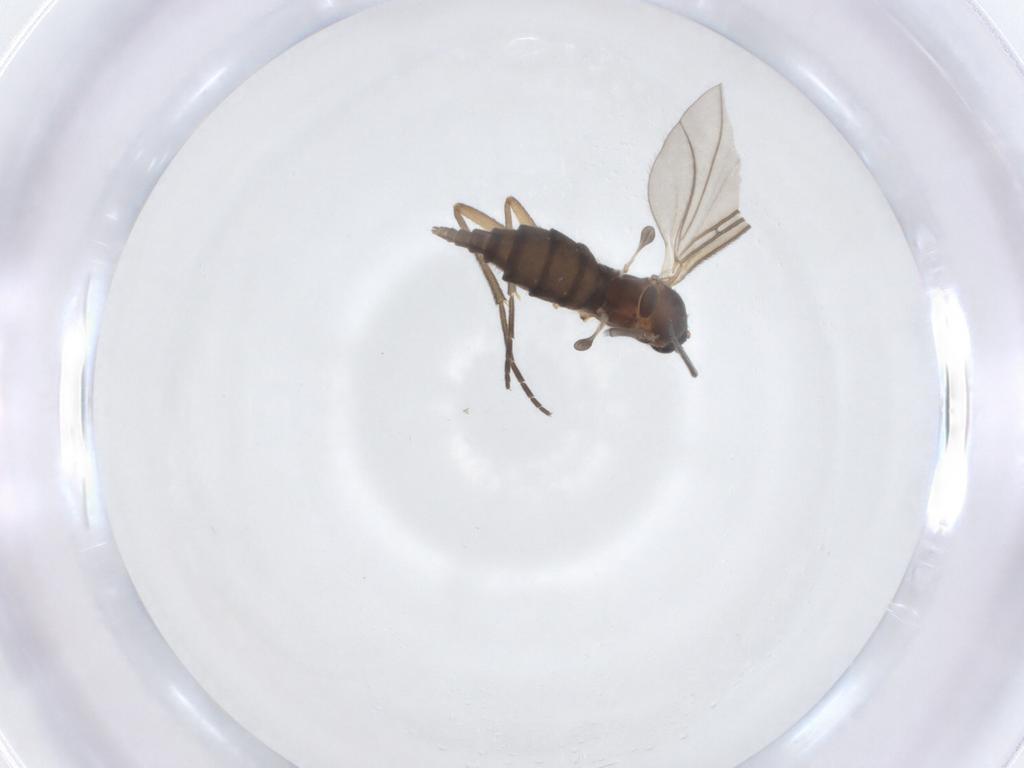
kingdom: Animalia
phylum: Arthropoda
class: Insecta
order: Diptera
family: Sciaridae
